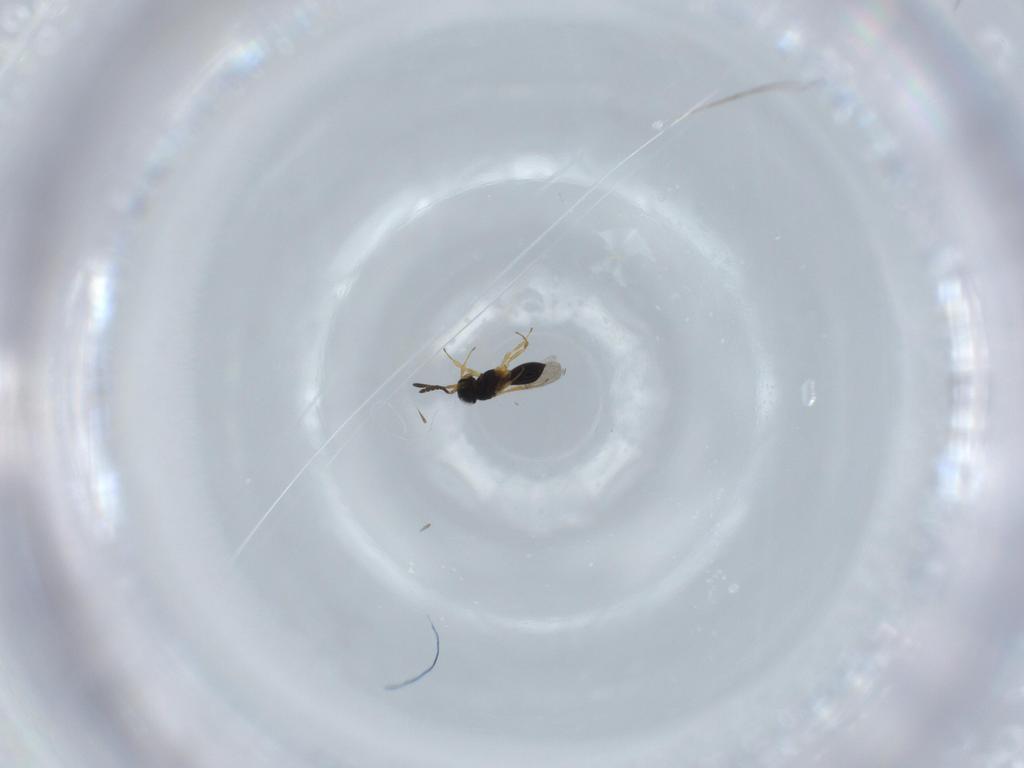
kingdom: Animalia
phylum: Arthropoda
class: Insecta
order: Hymenoptera
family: Scelionidae
